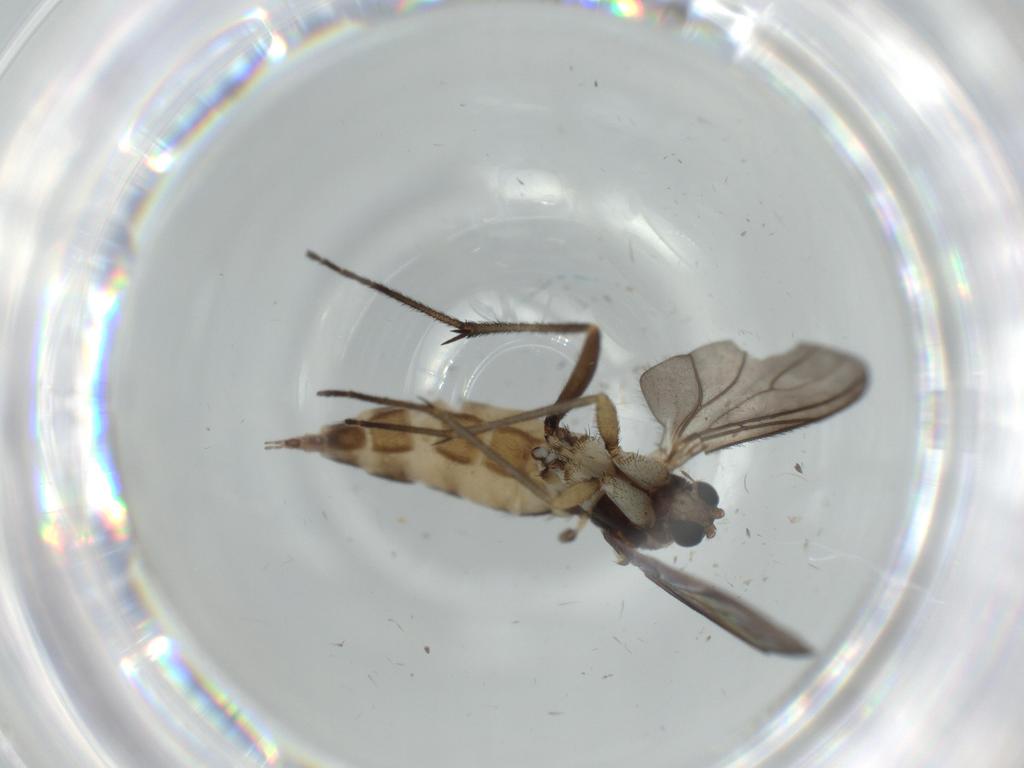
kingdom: Animalia
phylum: Arthropoda
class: Insecta
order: Diptera
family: Sciaridae
